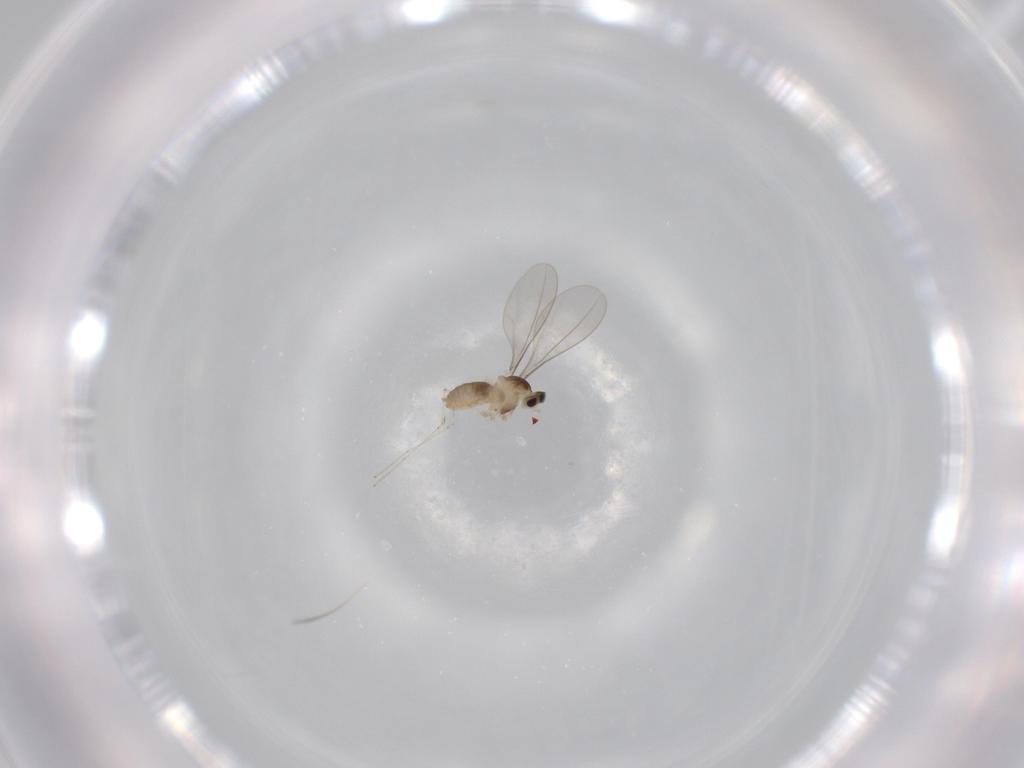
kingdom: Animalia
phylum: Arthropoda
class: Insecta
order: Diptera
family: Cecidomyiidae
